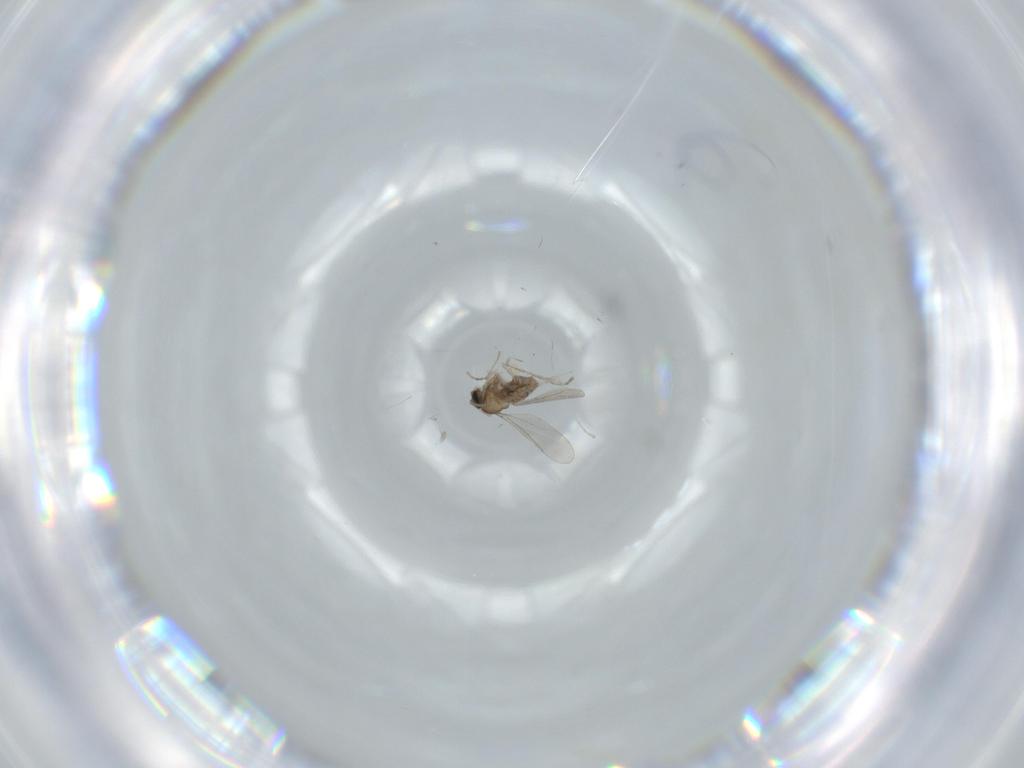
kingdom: Animalia
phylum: Arthropoda
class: Insecta
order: Diptera
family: Cecidomyiidae
